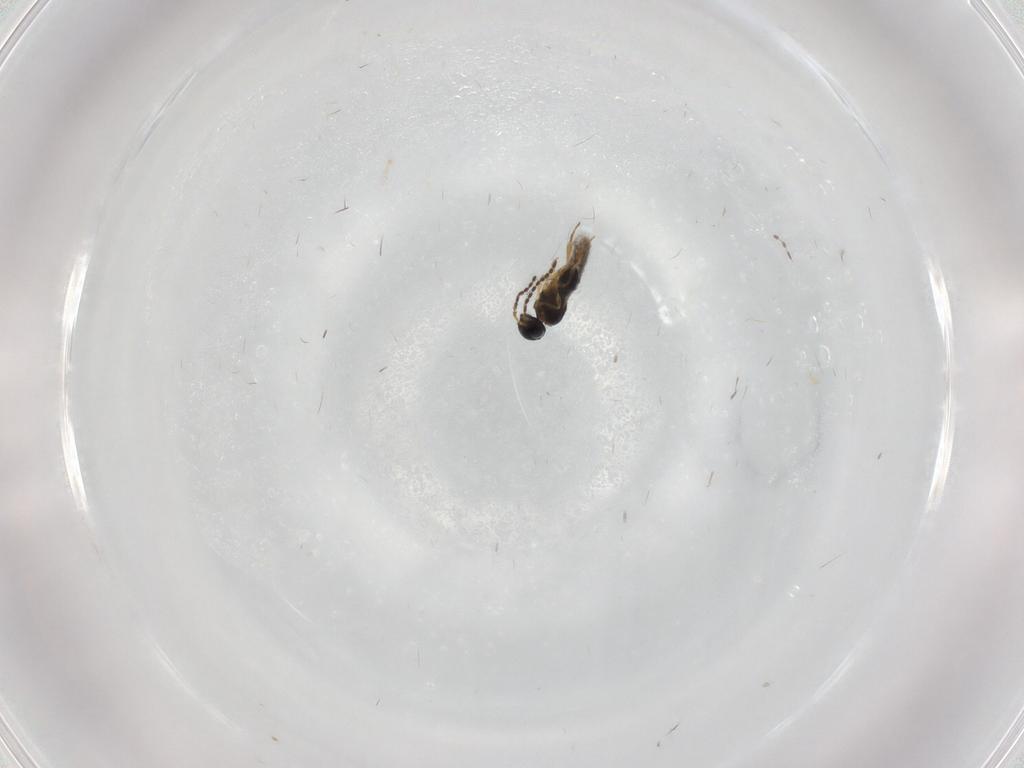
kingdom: Animalia
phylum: Arthropoda
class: Insecta
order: Hymenoptera
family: Scelionidae
